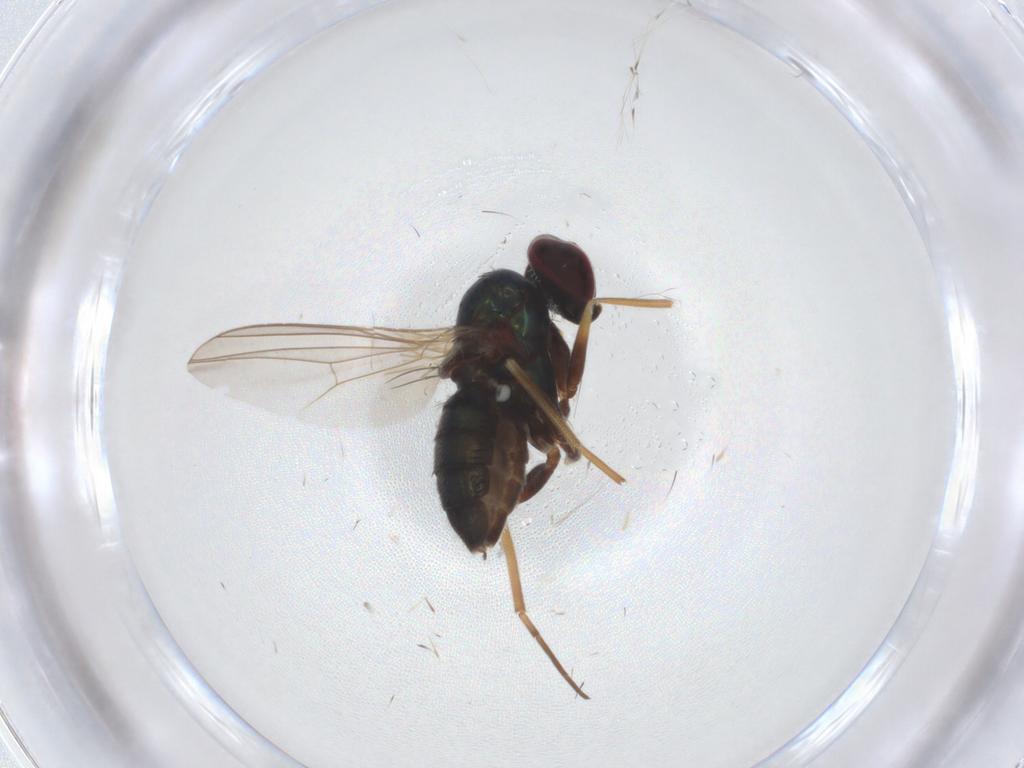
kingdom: Animalia
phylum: Arthropoda
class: Insecta
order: Diptera
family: Dolichopodidae
